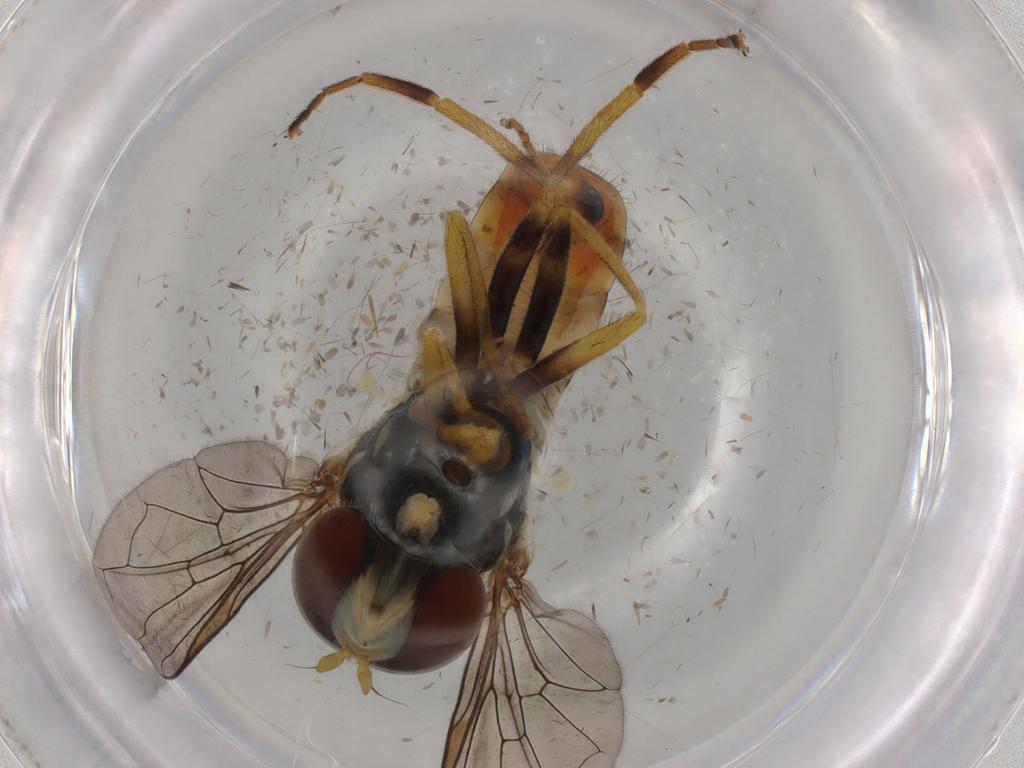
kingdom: Animalia
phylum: Arthropoda
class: Insecta
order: Diptera
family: Syrphidae
